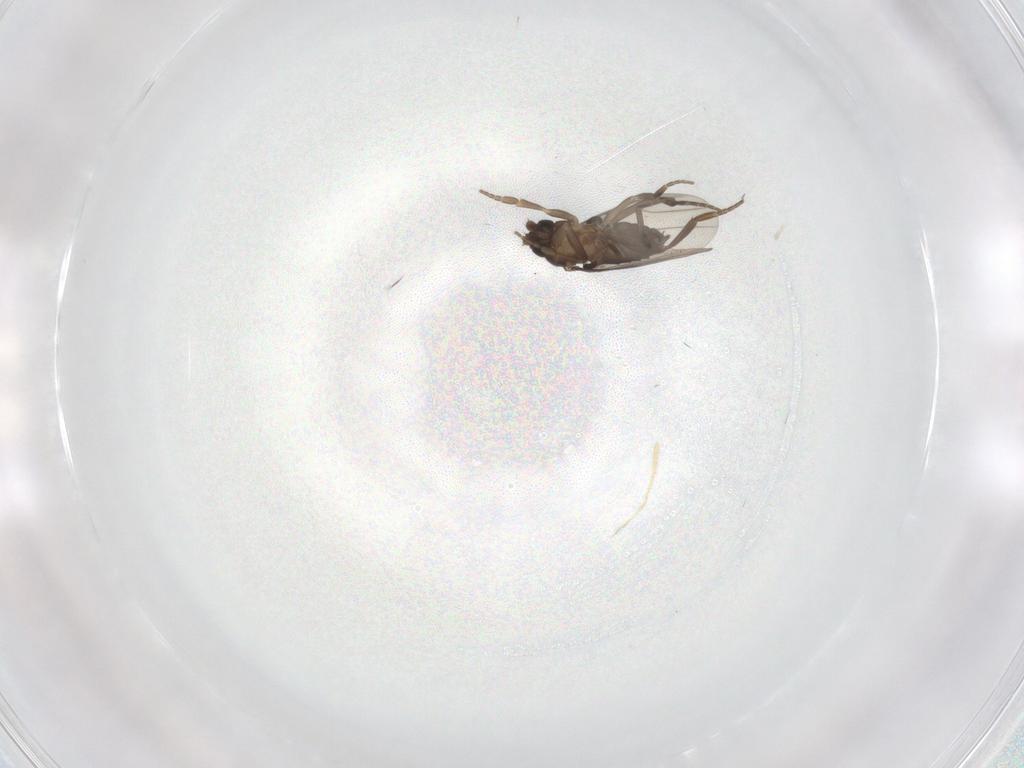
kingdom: Animalia
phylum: Arthropoda
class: Insecta
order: Diptera
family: Phoridae
